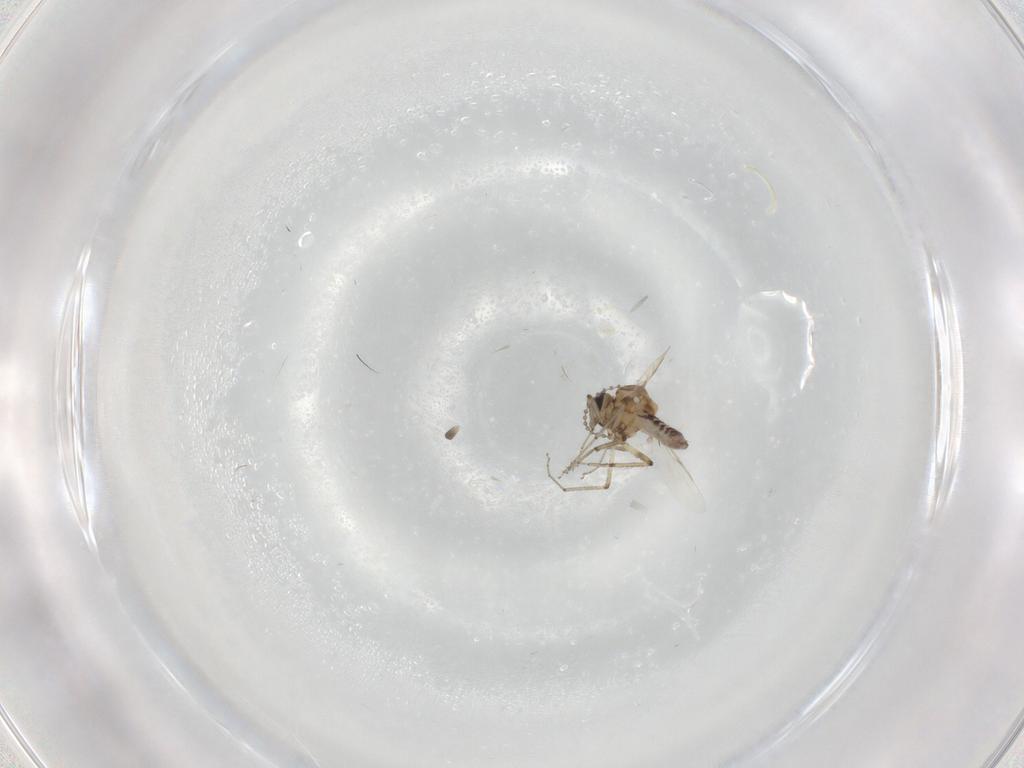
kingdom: Animalia
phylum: Arthropoda
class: Insecta
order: Diptera
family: Ceratopogonidae
